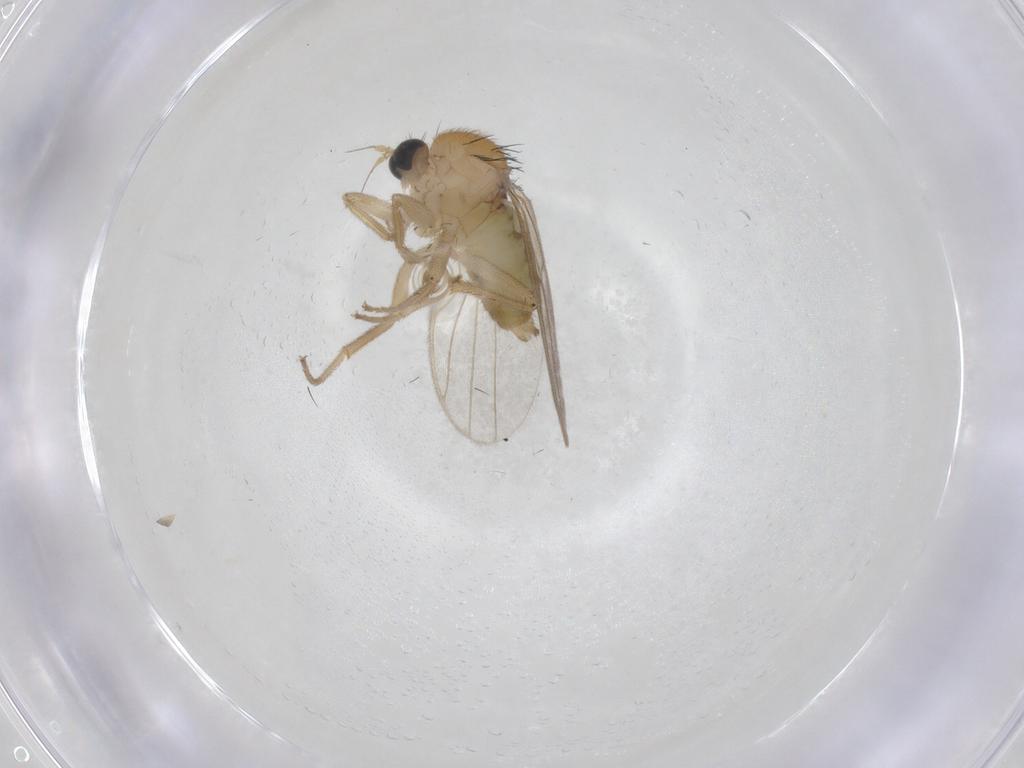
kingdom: Animalia
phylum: Arthropoda
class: Insecta
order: Diptera
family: Hybotidae
